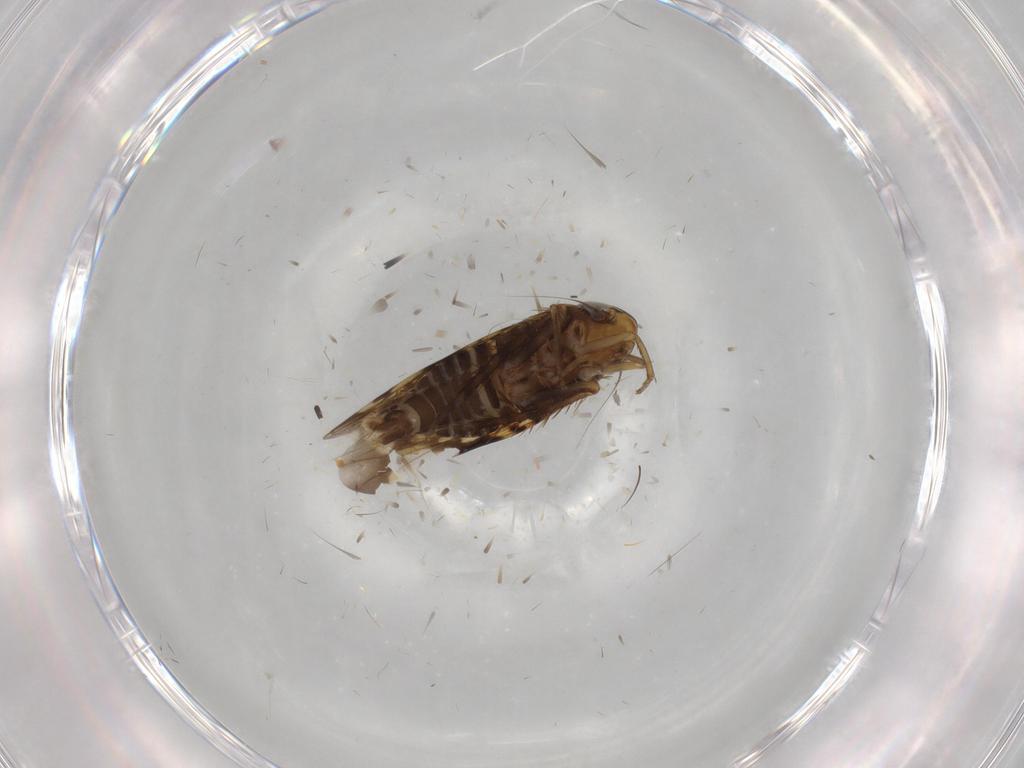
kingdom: Animalia
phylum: Arthropoda
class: Insecta
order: Hemiptera
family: Cicadellidae
